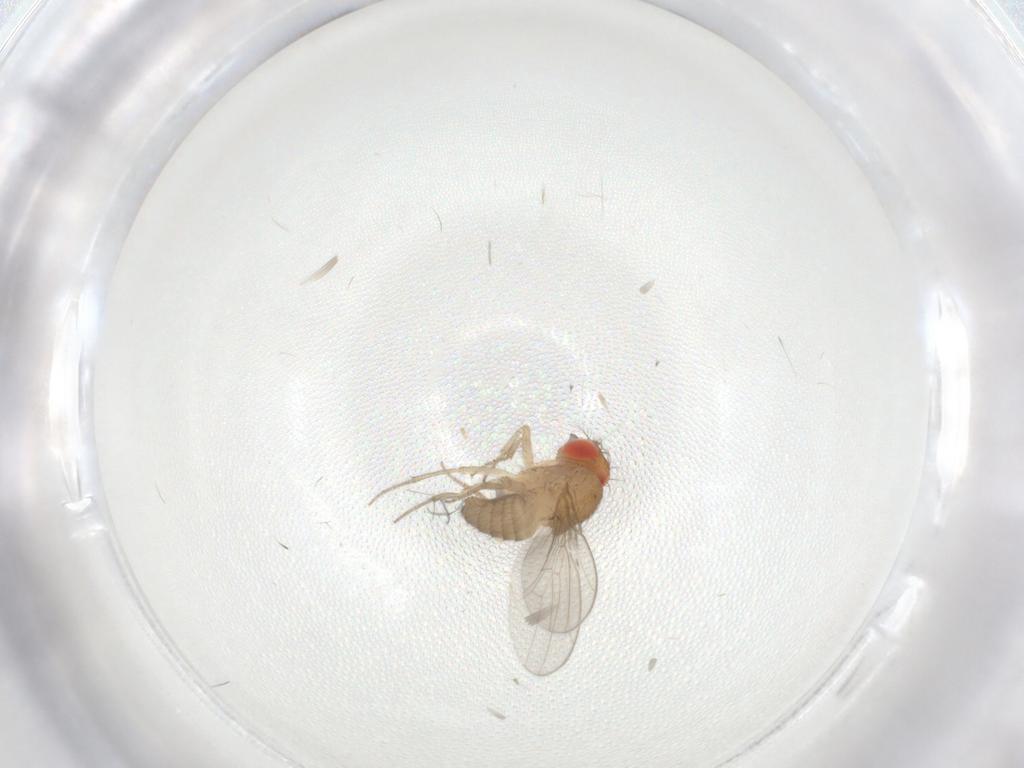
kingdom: Animalia
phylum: Arthropoda
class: Insecta
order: Diptera
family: Drosophilidae
